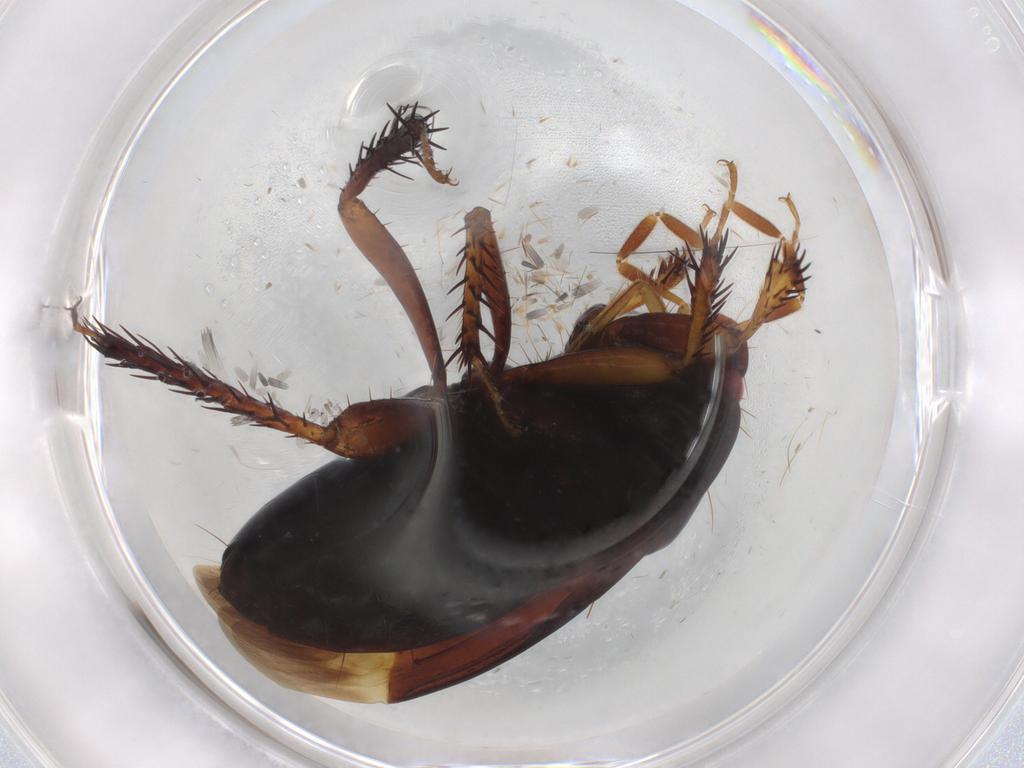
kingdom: Animalia
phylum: Arthropoda
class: Insecta
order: Hemiptera
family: Cydnidae
